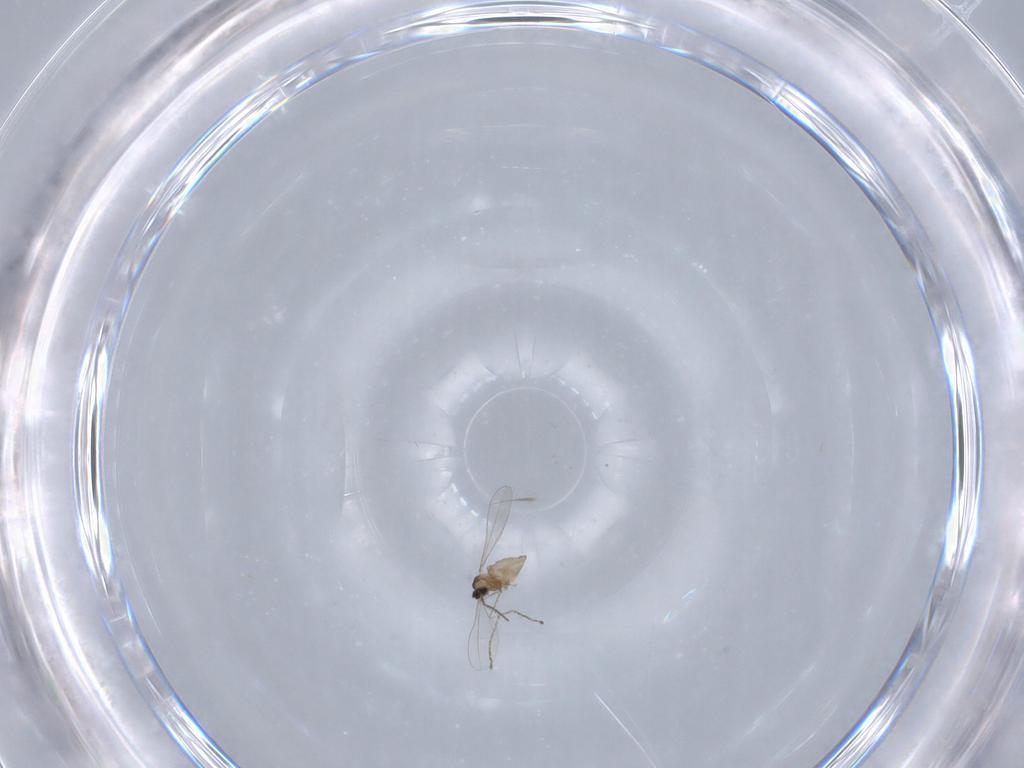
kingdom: Animalia
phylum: Arthropoda
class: Insecta
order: Diptera
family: Cecidomyiidae
